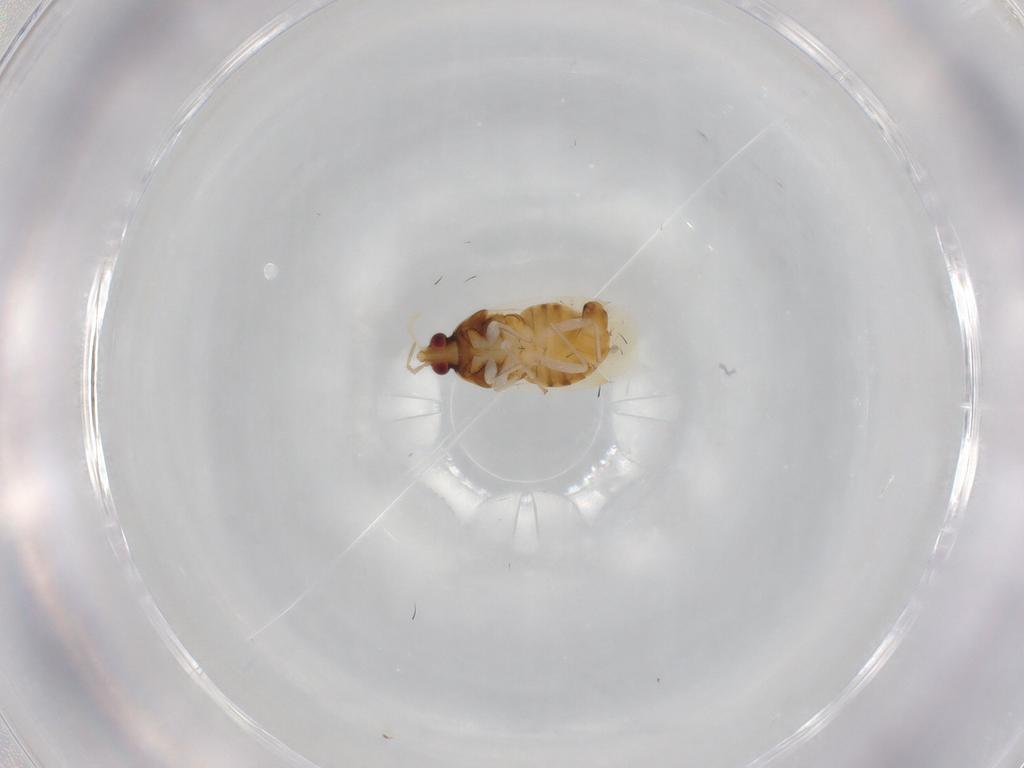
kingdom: Animalia
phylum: Arthropoda
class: Insecta
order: Hemiptera
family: Anthocoridae
